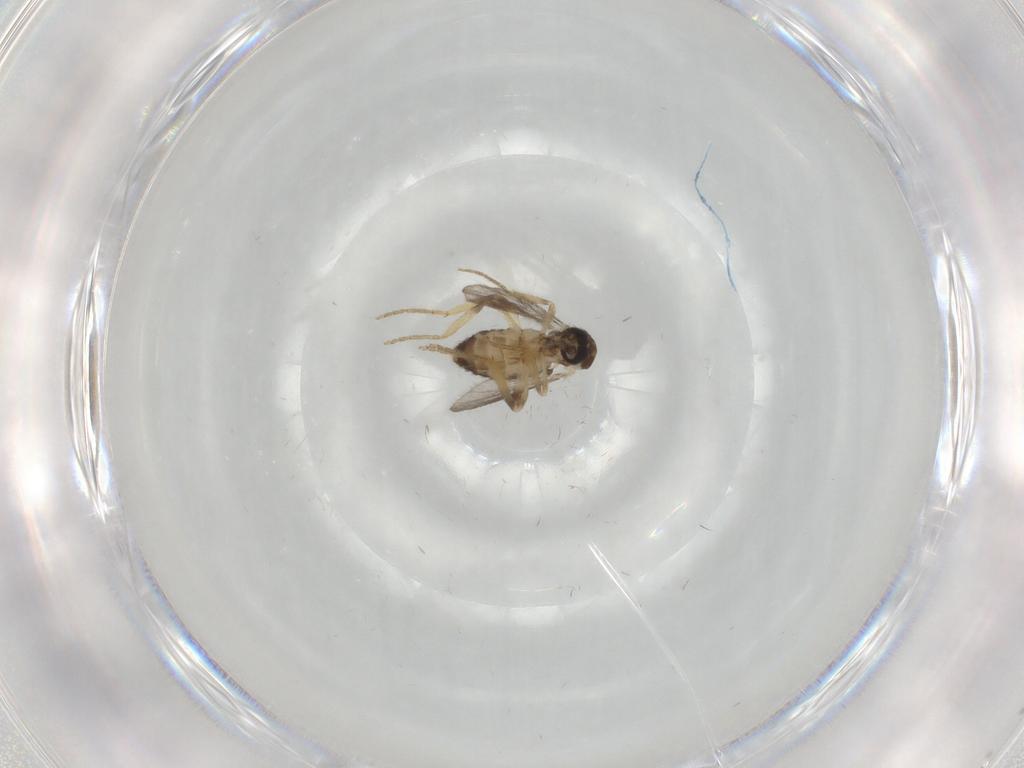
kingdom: Animalia
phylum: Arthropoda
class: Insecta
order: Diptera
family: Ceratopogonidae
